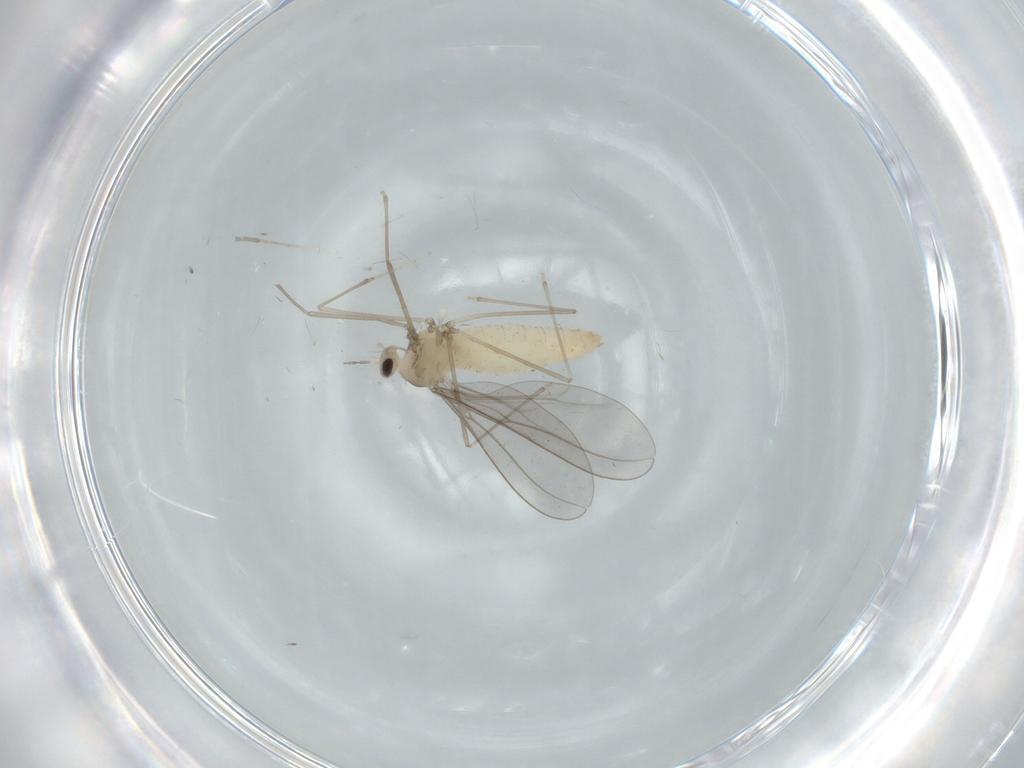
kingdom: Animalia
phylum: Arthropoda
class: Insecta
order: Diptera
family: Cecidomyiidae
